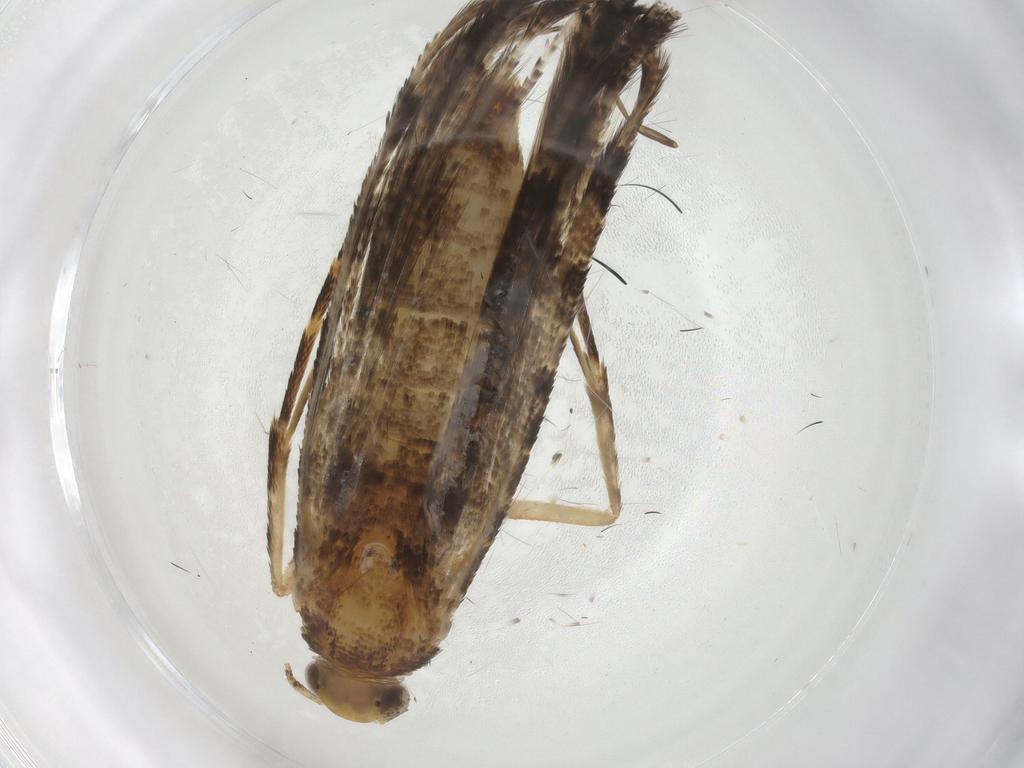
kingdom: Animalia
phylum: Arthropoda
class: Insecta
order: Lepidoptera
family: Alucitidae
